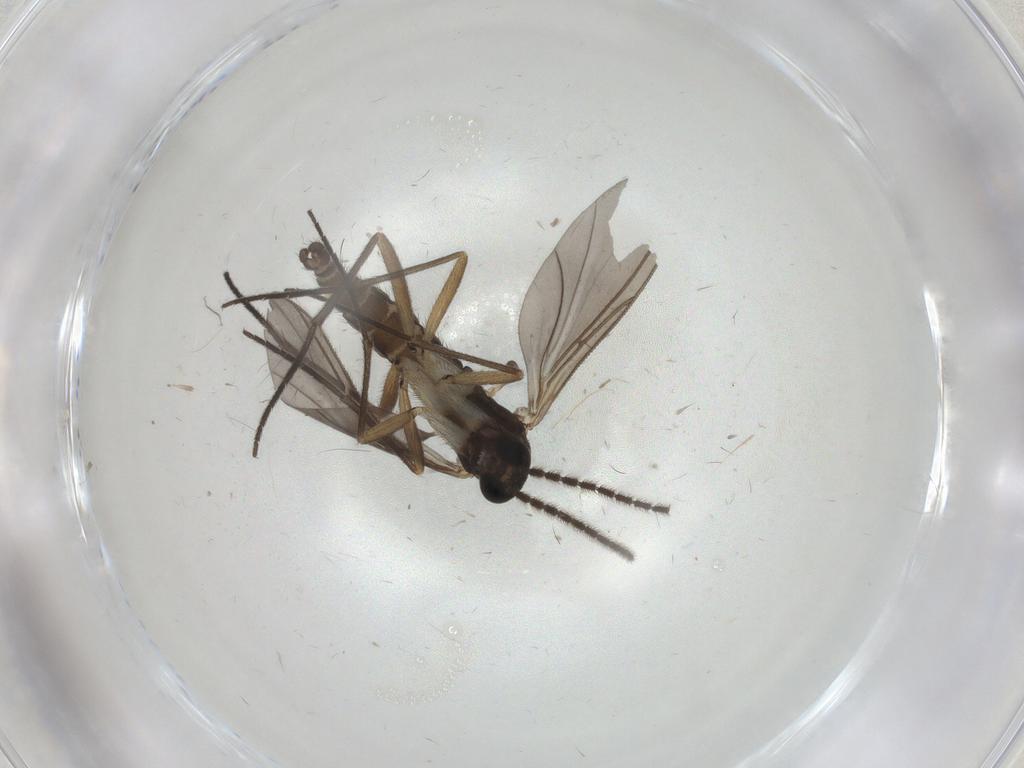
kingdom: Animalia
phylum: Arthropoda
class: Insecta
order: Diptera
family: Sciaridae
